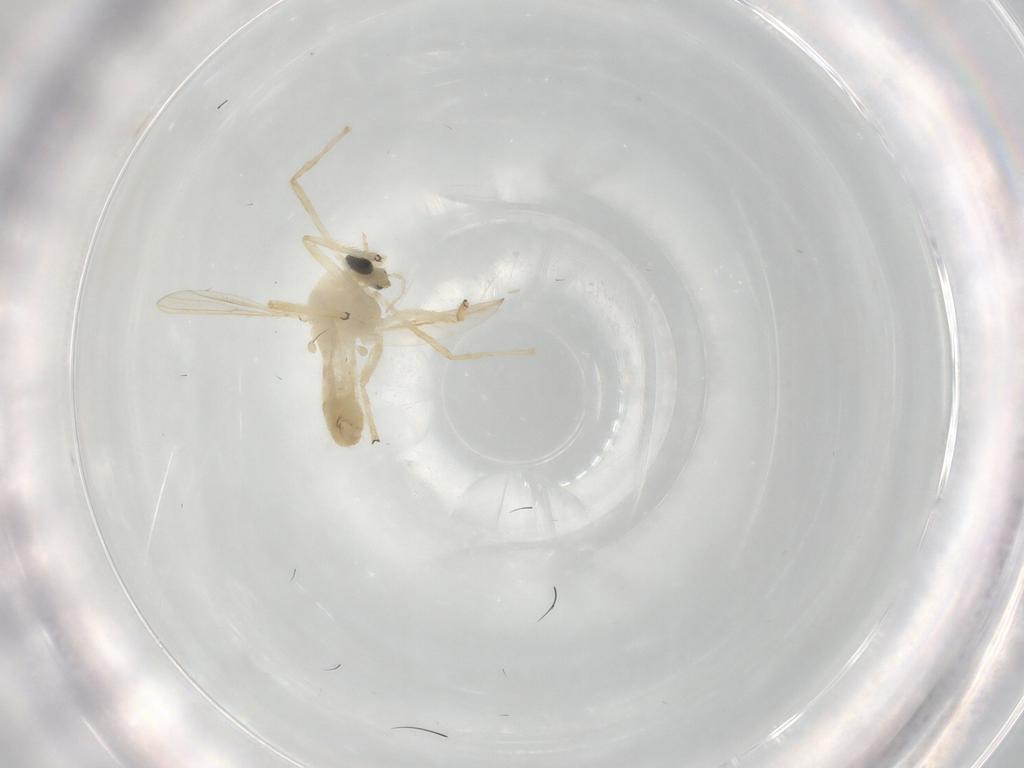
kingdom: Animalia
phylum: Arthropoda
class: Insecta
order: Diptera
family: Chironomidae
